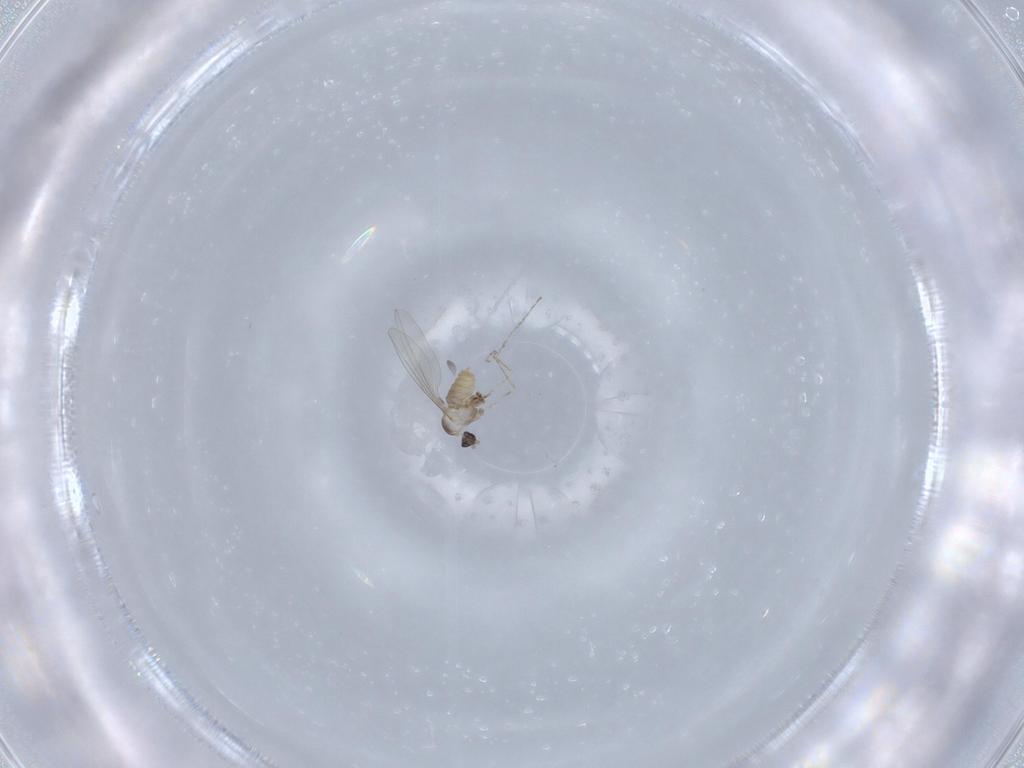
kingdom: Animalia
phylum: Arthropoda
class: Insecta
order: Diptera
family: Cecidomyiidae
